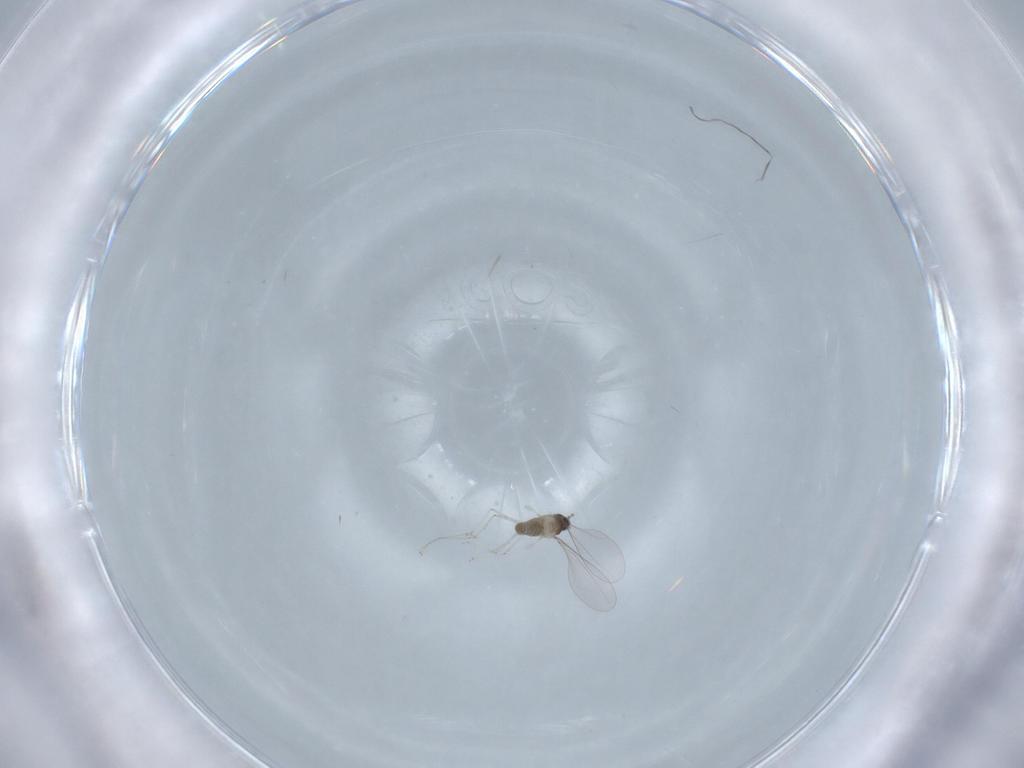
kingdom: Animalia
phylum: Arthropoda
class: Insecta
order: Diptera
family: Cecidomyiidae
